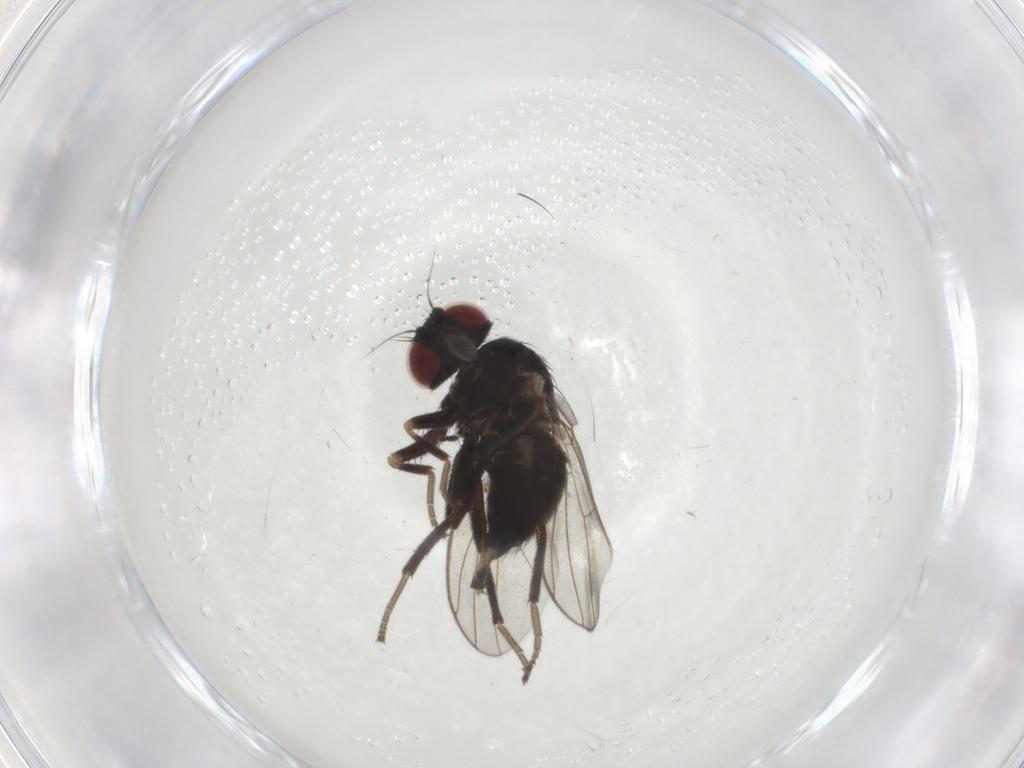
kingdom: Animalia
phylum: Arthropoda
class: Insecta
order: Diptera
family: Agromyzidae
